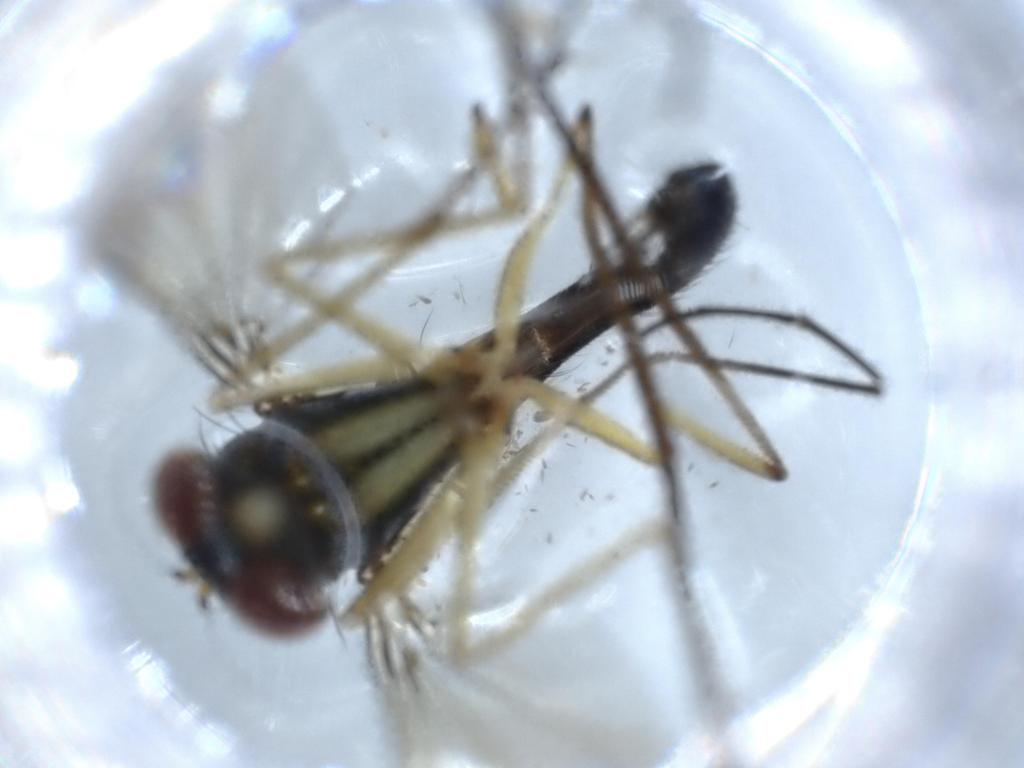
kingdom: Animalia
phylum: Arthropoda
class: Insecta
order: Diptera
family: Dolichopodidae
